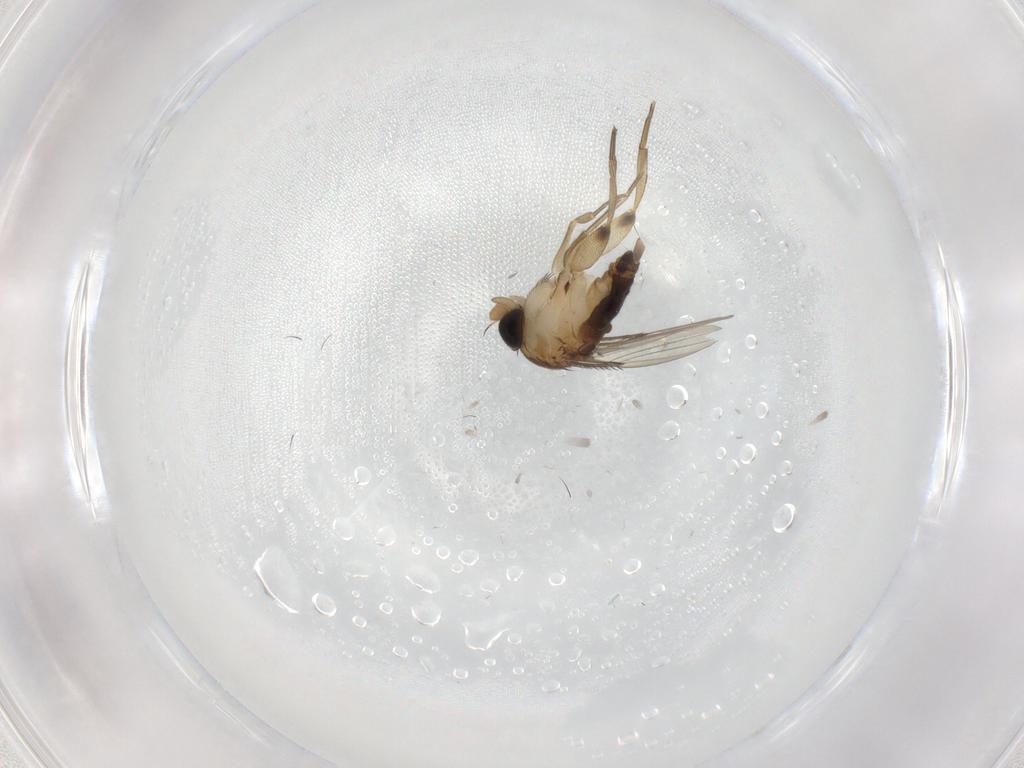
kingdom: Animalia
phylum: Arthropoda
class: Insecta
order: Diptera
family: Phoridae
